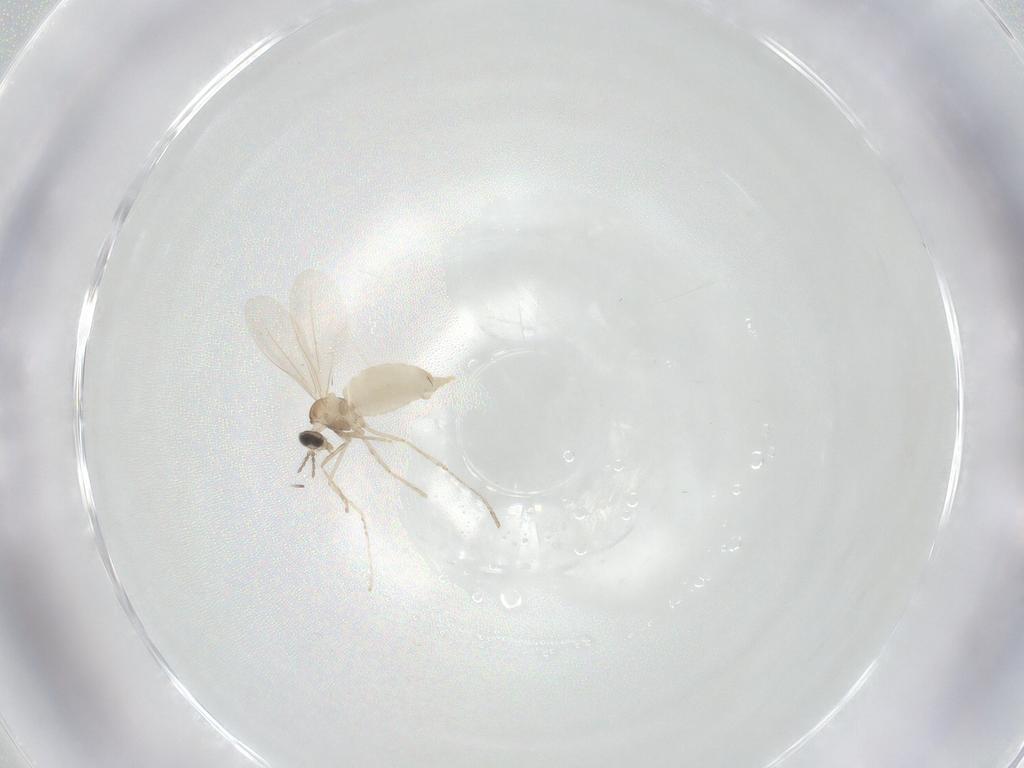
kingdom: Animalia
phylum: Arthropoda
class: Insecta
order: Diptera
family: Cecidomyiidae
